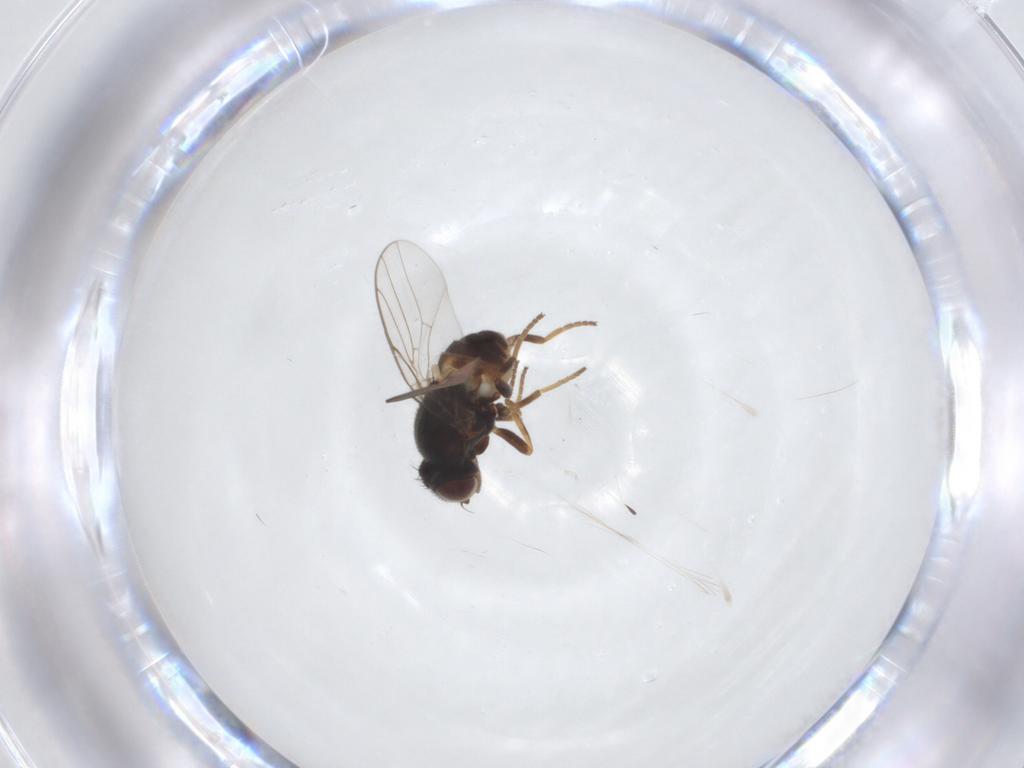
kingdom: Animalia
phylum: Arthropoda
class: Insecta
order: Diptera
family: Chloropidae
